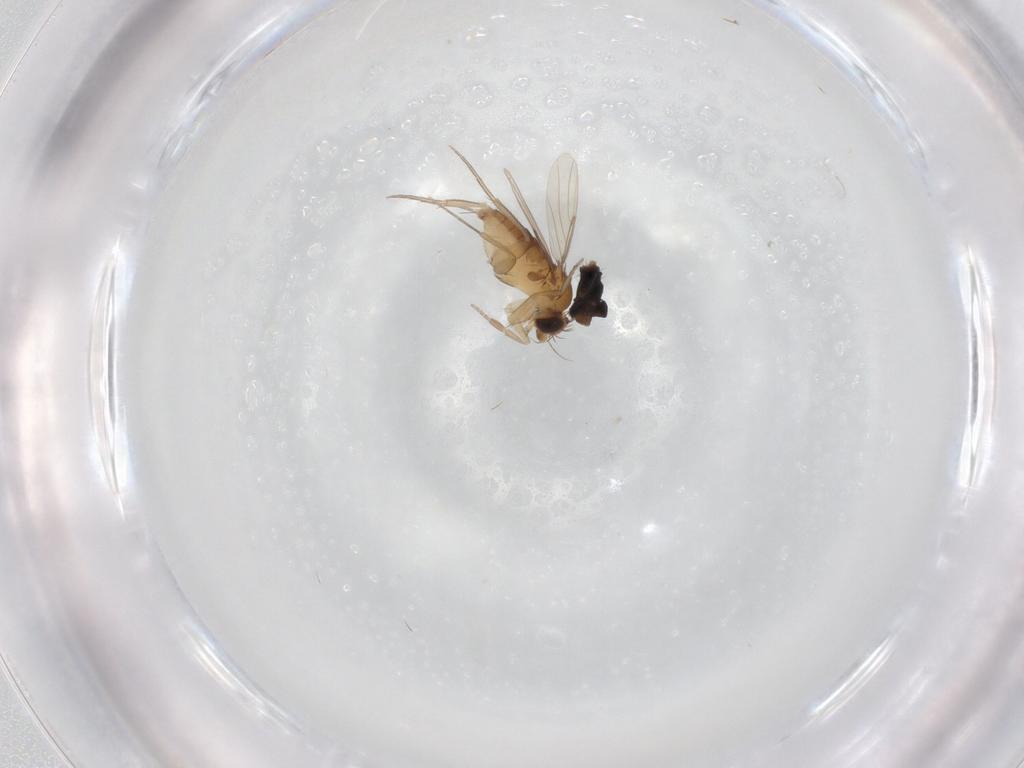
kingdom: Animalia
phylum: Arthropoda
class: Insecta
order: Diptera
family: Phoridae
